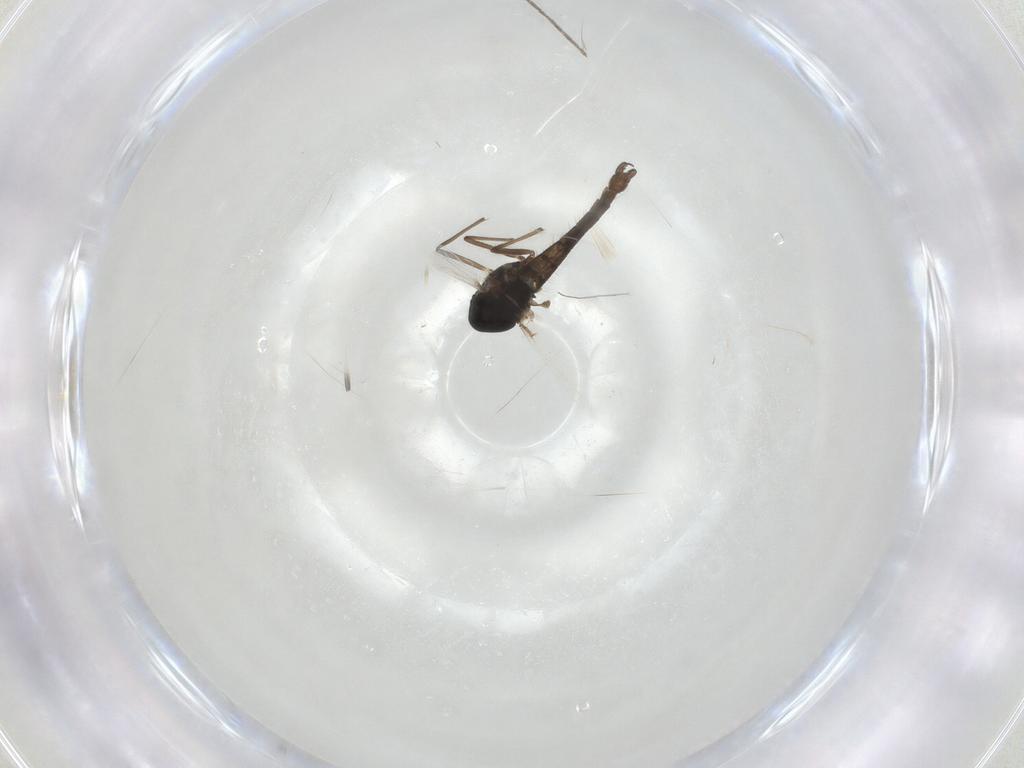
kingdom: Animalia
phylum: Arthropoda
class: Insecta
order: Diptera
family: Chironomidae
